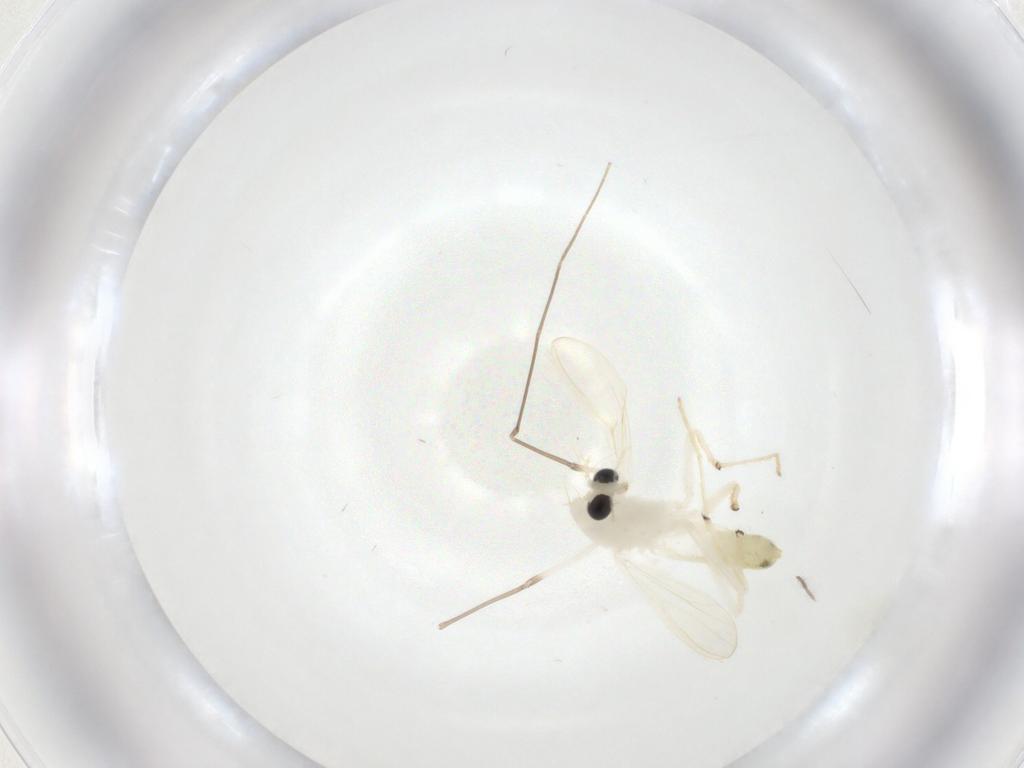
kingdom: Animalia
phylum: Arthropoda
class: Insecta
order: Diptera
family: Chironomidae
